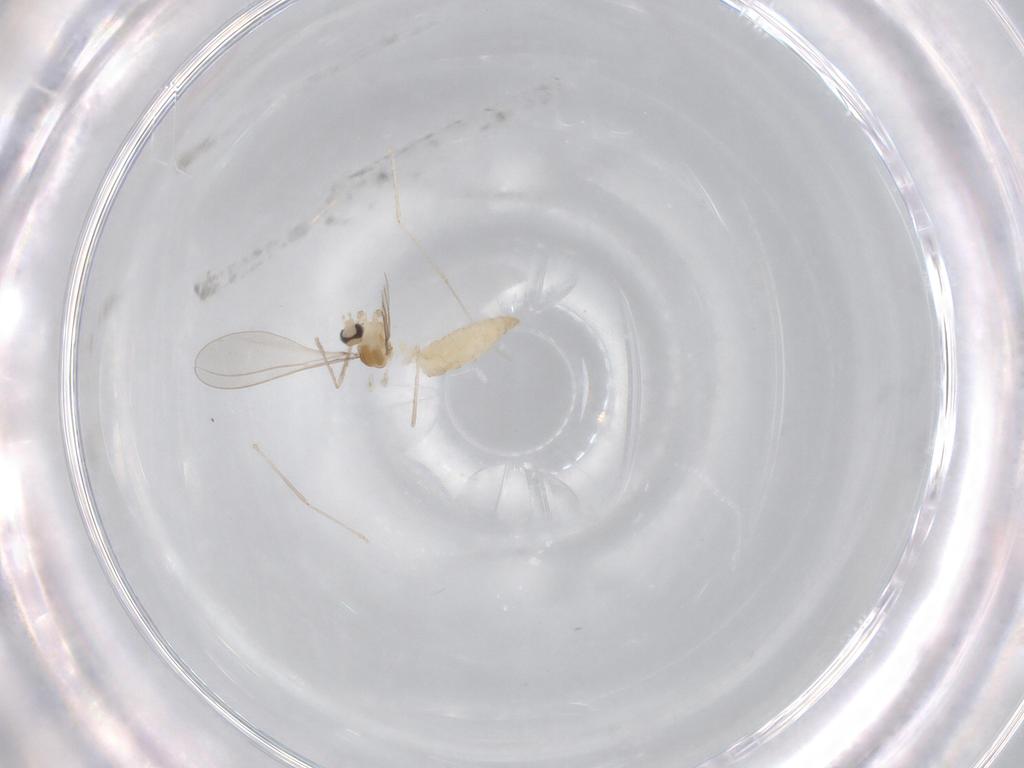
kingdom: Animalia
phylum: Arthropoda
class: Insecta
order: Diptera
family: Cecidomyiidae
